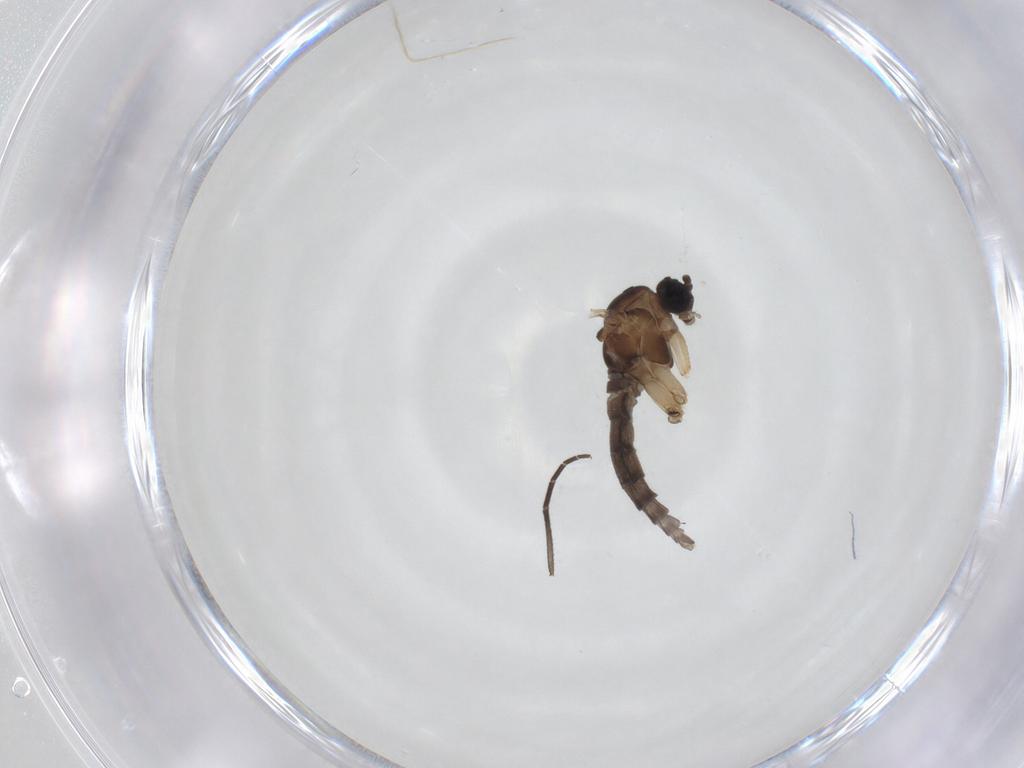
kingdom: Animalia
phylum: Arthropoda
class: Insecta
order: Diptera
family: Sciaridae
